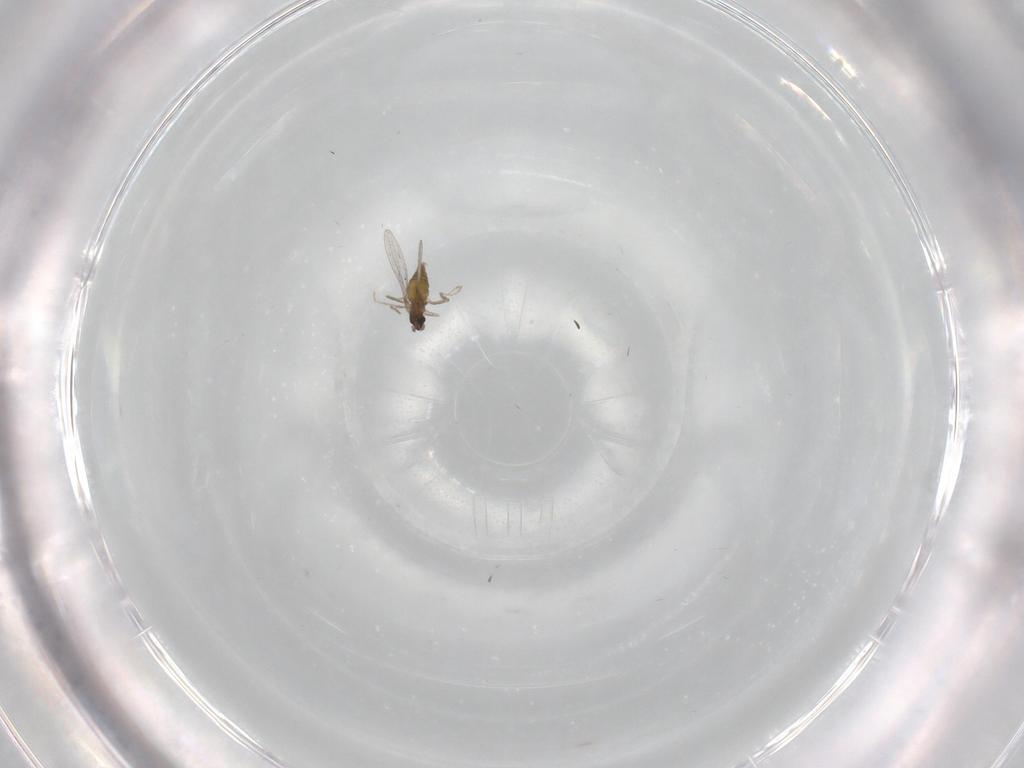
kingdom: Animalia
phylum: Arthropoda
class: Insecta
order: Diptera
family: Cecidomyiidae
